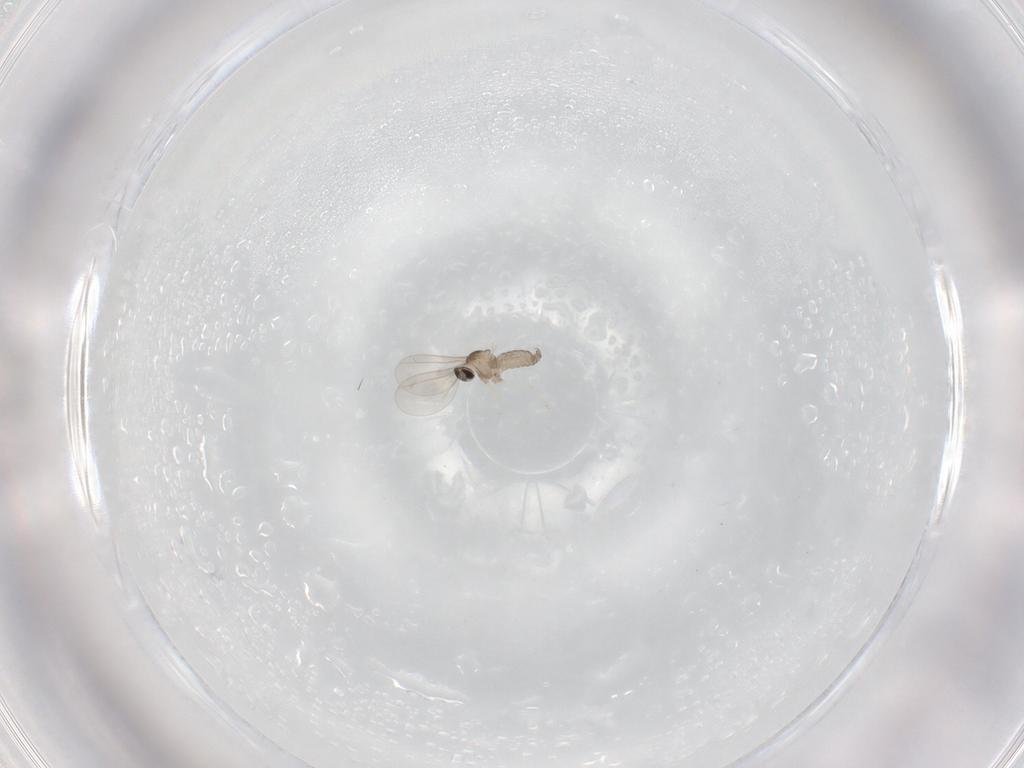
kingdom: Animalia
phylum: Arthropoda
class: Insecta
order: Diptera
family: Cecidomyiidae
